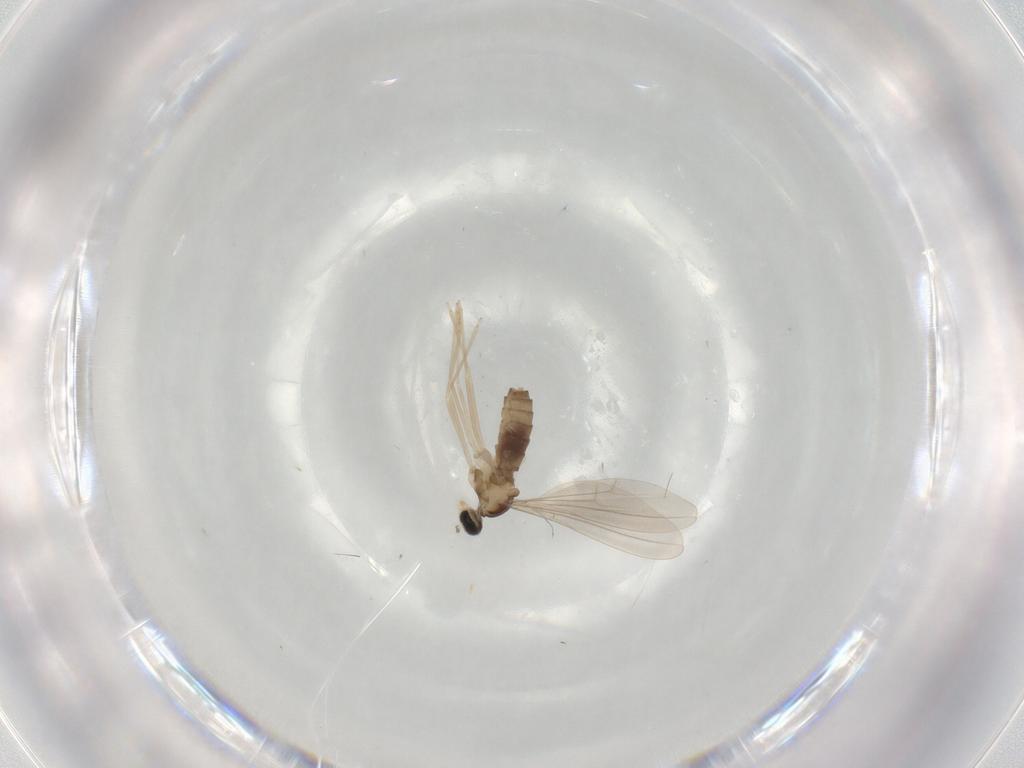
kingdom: Animalia
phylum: Arthropoda
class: Insecta
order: Diptera
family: Cecidomyiidae
